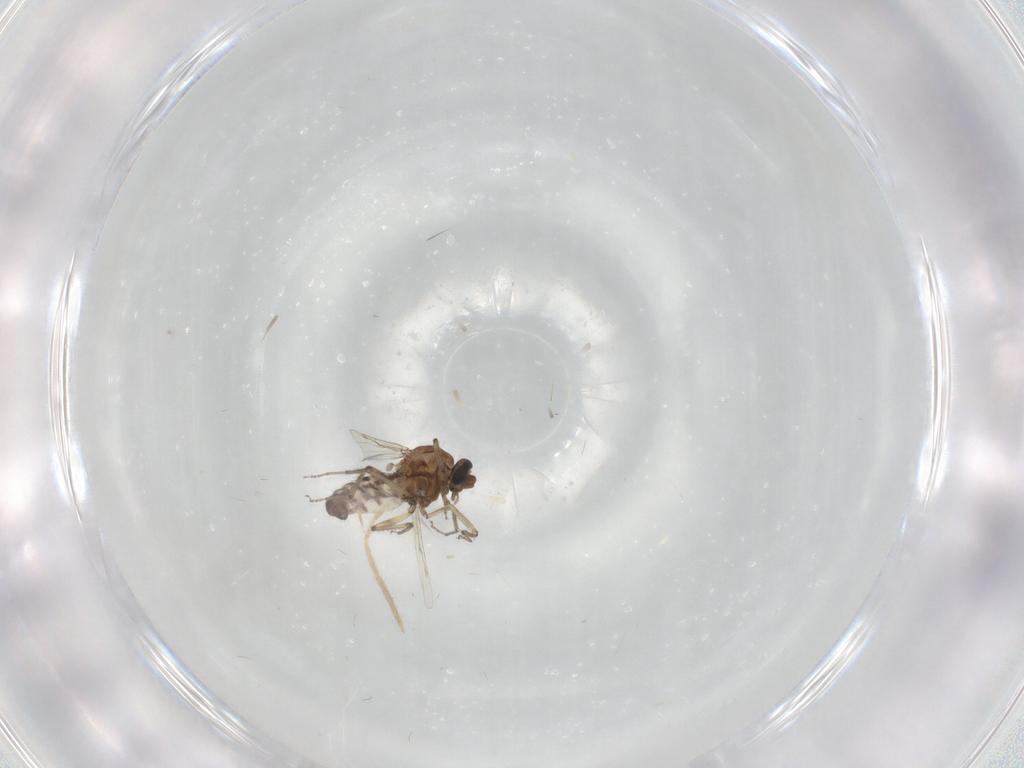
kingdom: Animalia
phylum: Arthropoda
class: Insecta
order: Diptera
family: Ceratopogonidae
